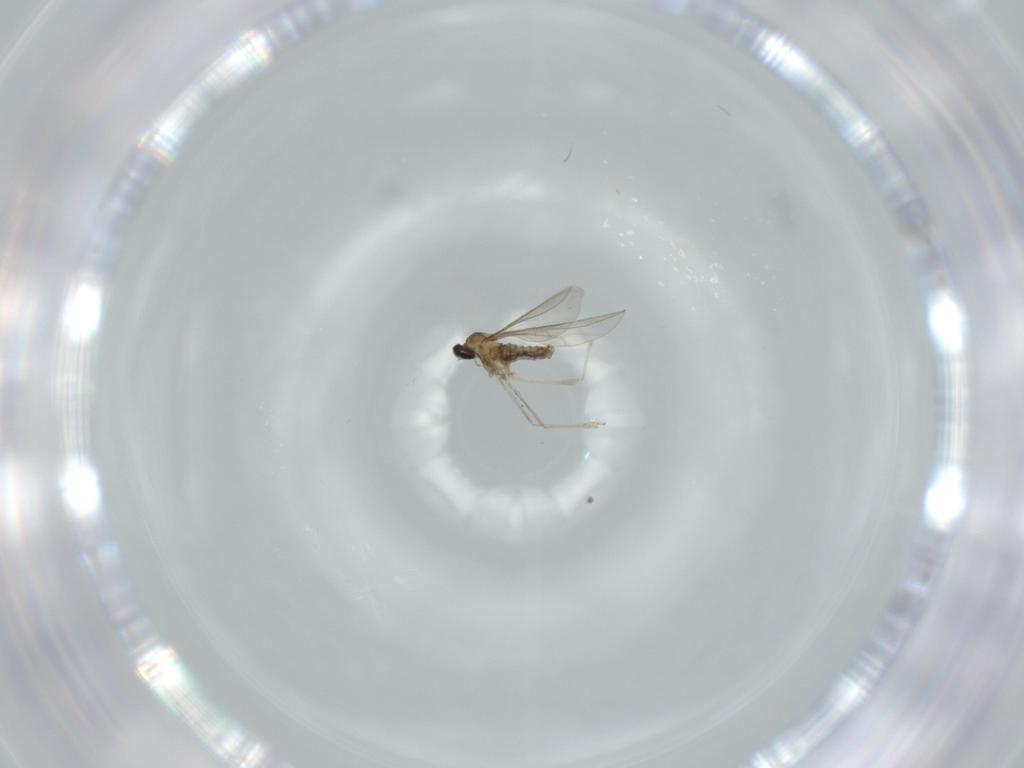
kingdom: Animalia
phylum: Arthropoda
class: Insecta
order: Diptera
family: Cecidomyiidae
